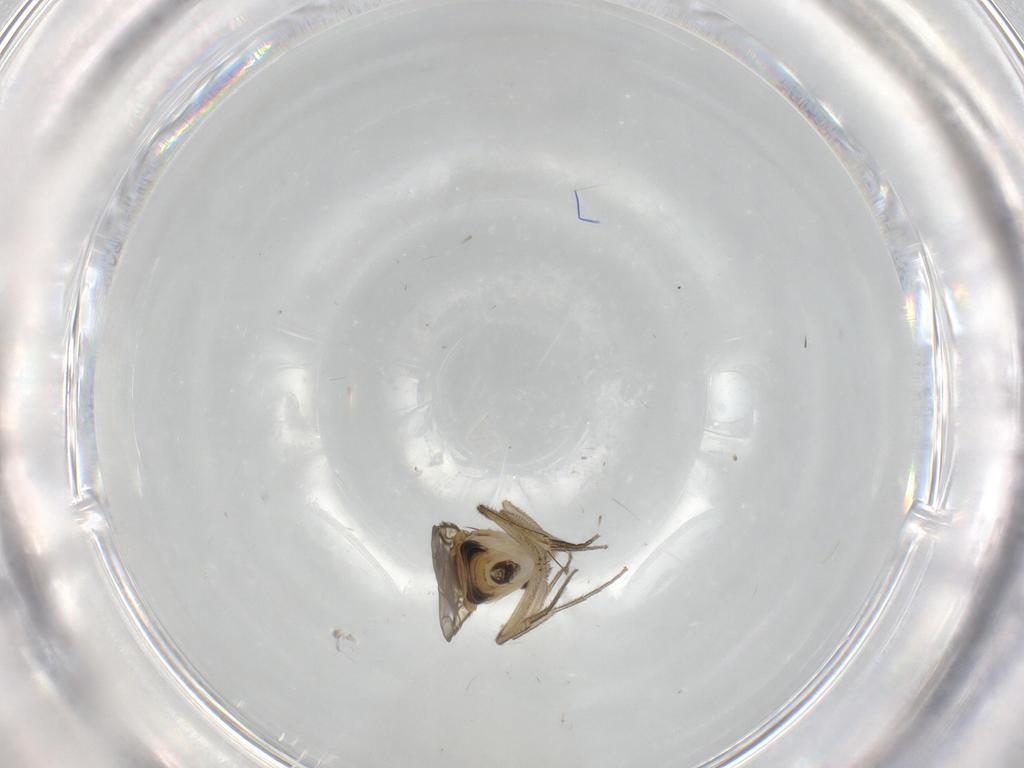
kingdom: Animalia
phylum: Arthropoda
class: Insecta
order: Diptera
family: Phoridae
